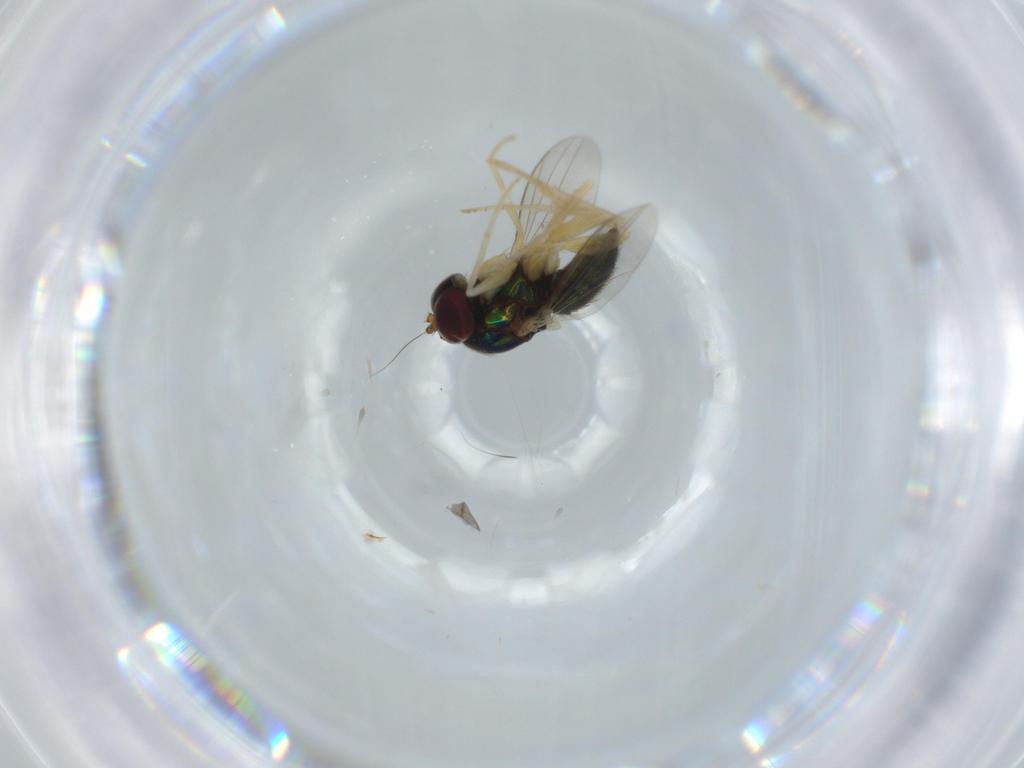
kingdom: Animalia
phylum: Arthropoda
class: Insecta
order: Diptera
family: Dolichopodidae
